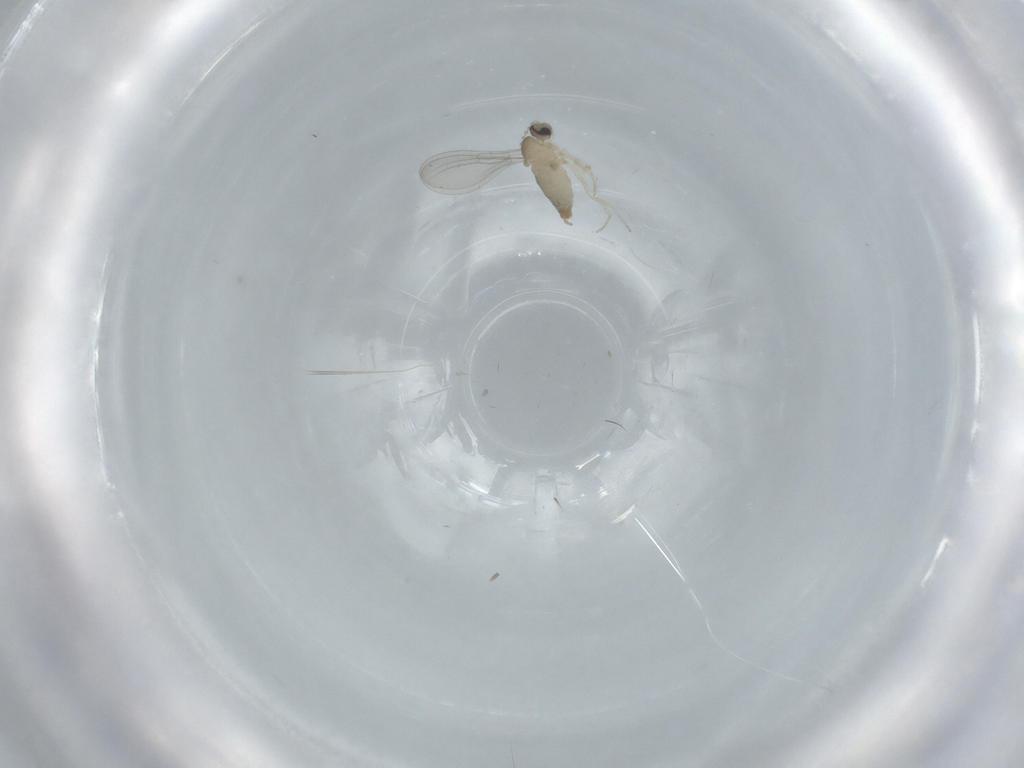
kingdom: Animalia
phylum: Arthropoda
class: Insecta
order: Diptera
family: Cecidomyiidae
